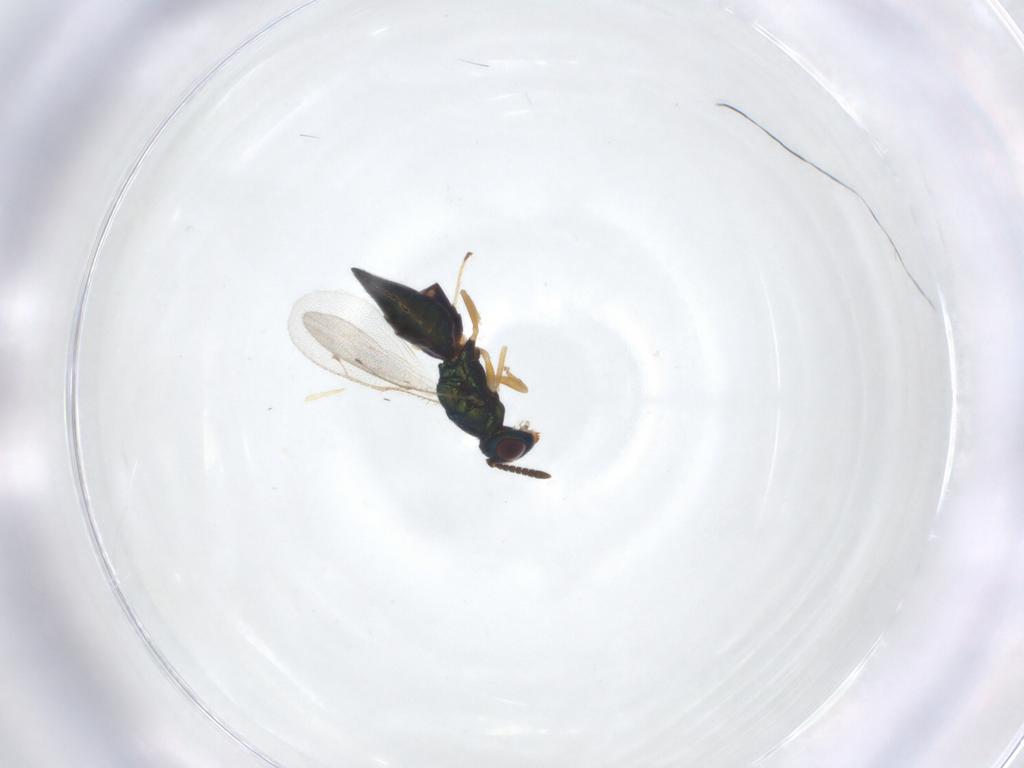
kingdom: Animalia
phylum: Arthropoda
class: Insecta
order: Hymenoptera
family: Pteromalidae
